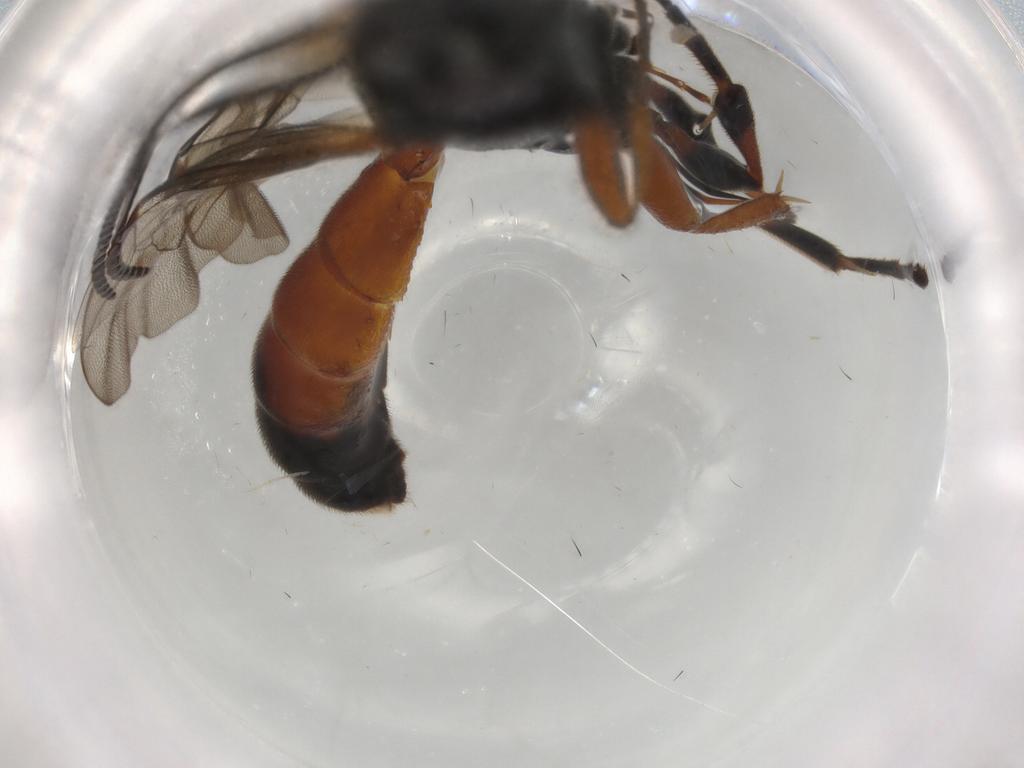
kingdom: Animalia
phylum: Arthropoda
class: Insecta
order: Hymenoptera
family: Ichneumonidae
